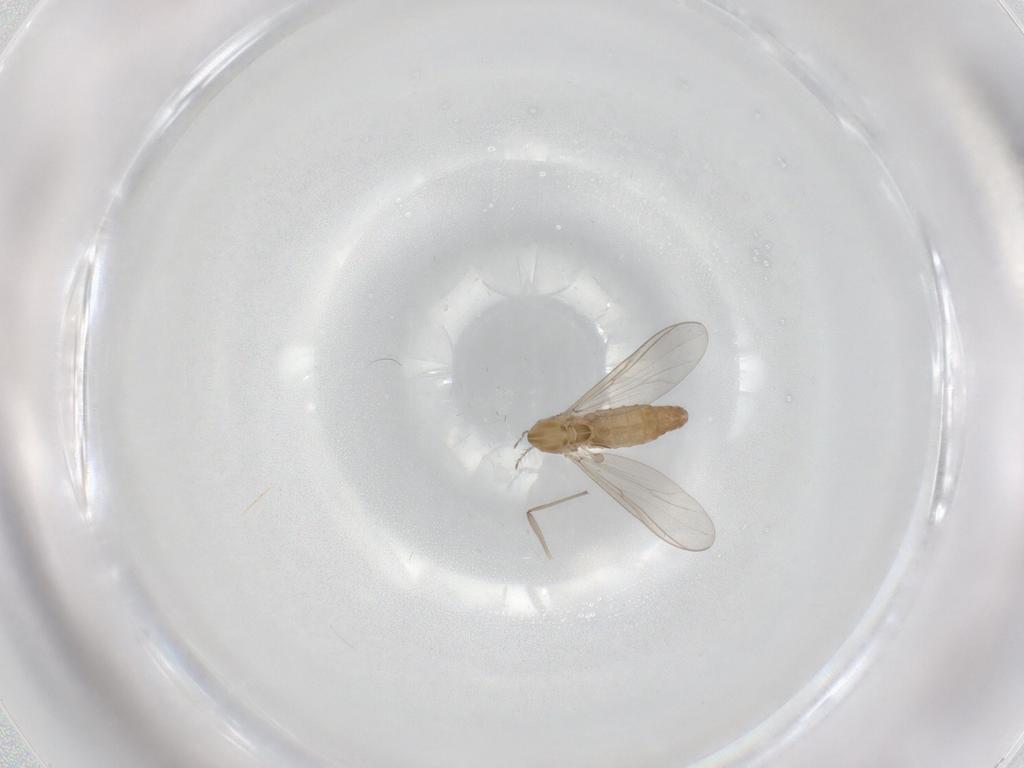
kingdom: Animalia
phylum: Arthropoda
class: Insecta
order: Diptera
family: Chironomidae
